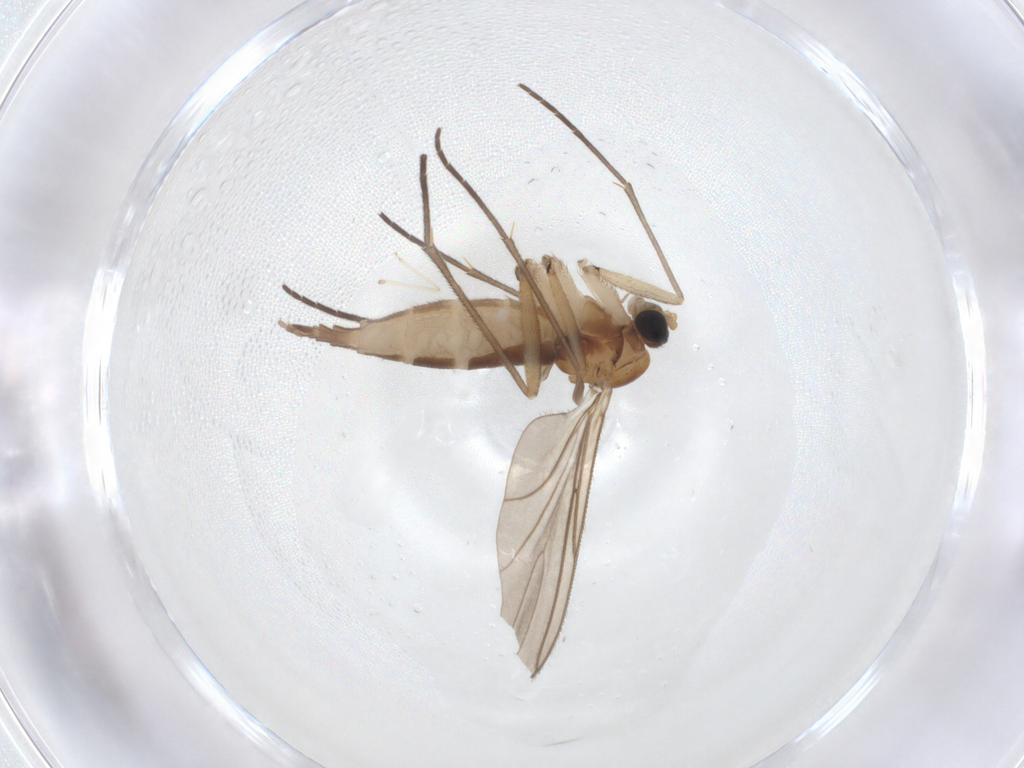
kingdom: Animalia
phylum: Arthropoda
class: Insecta
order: Diptera
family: Sciaridae
